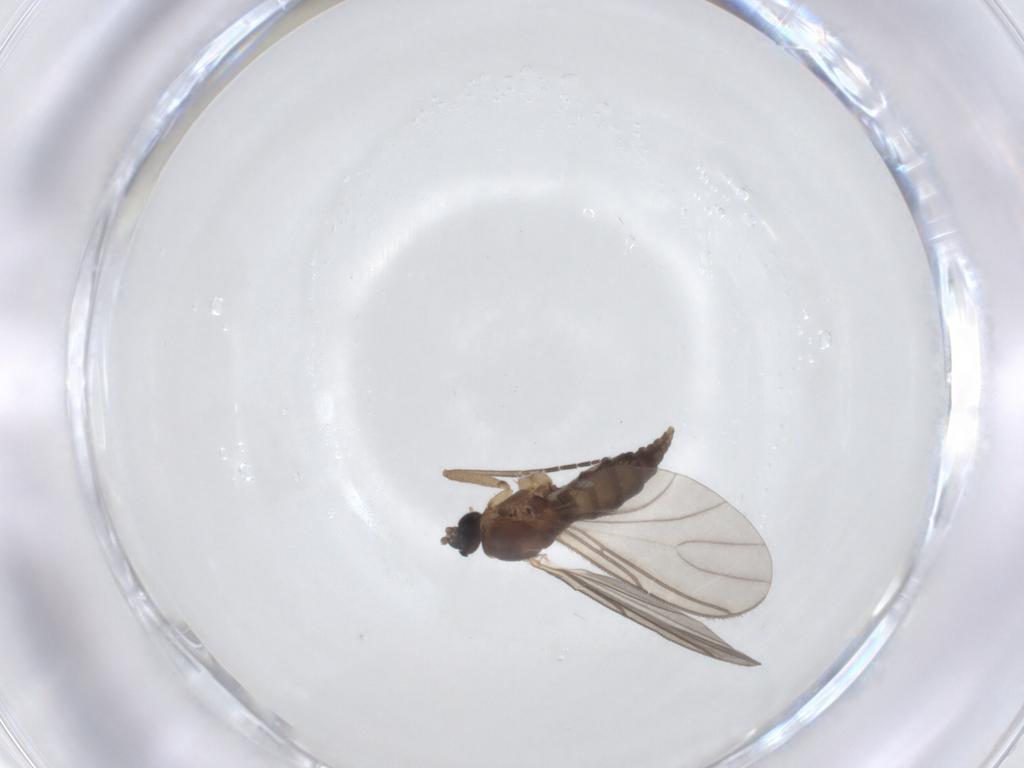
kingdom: Animalia
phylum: Arthropoda
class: Insecta
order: Diptera
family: Sciaridae
